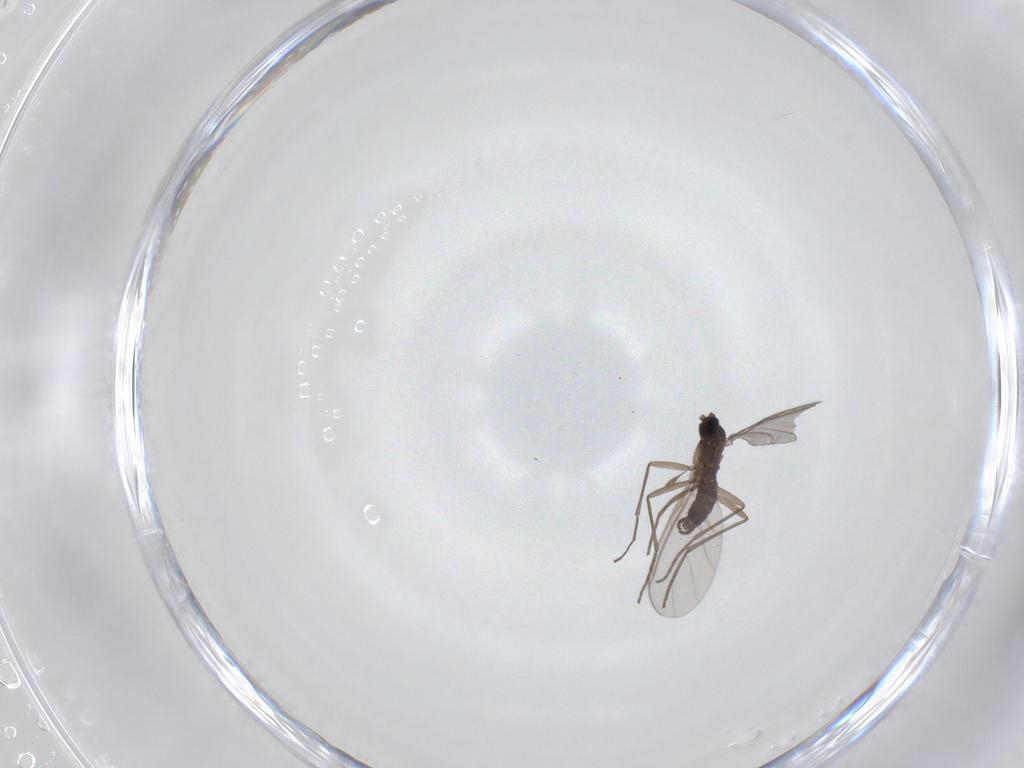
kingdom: Animalia
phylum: Arthropoda
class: Insecta
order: Diptera
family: Sciaridae
